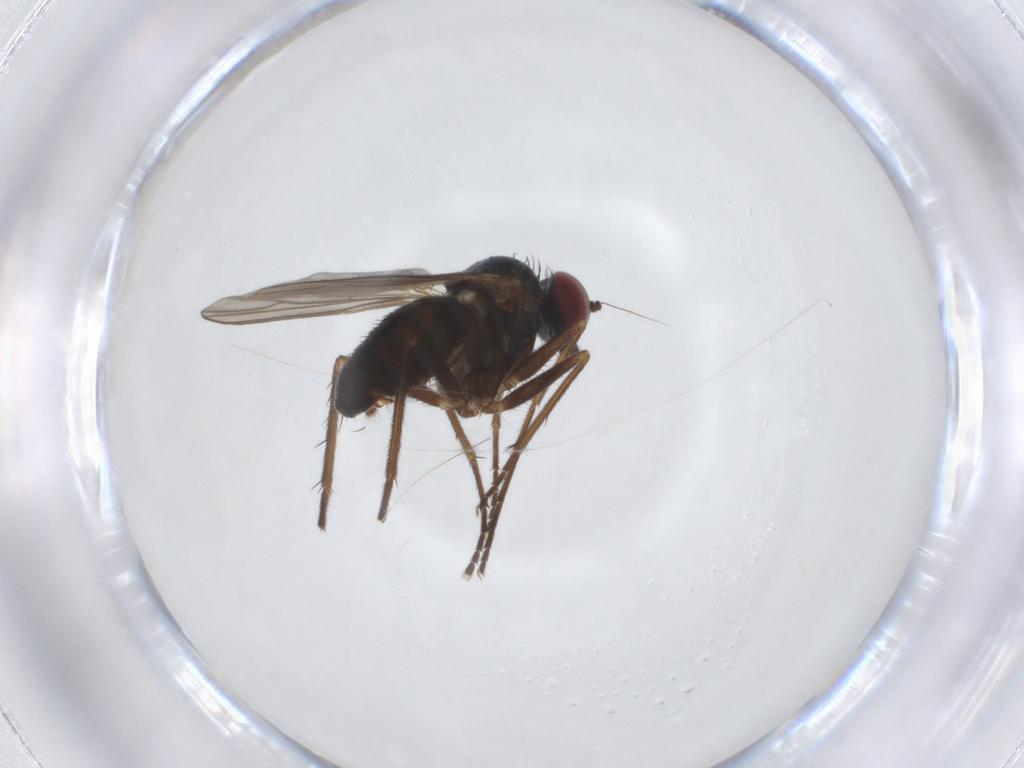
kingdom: Animalia
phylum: Arthropoda
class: Insecta
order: Diptera
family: Dolichopodidae
